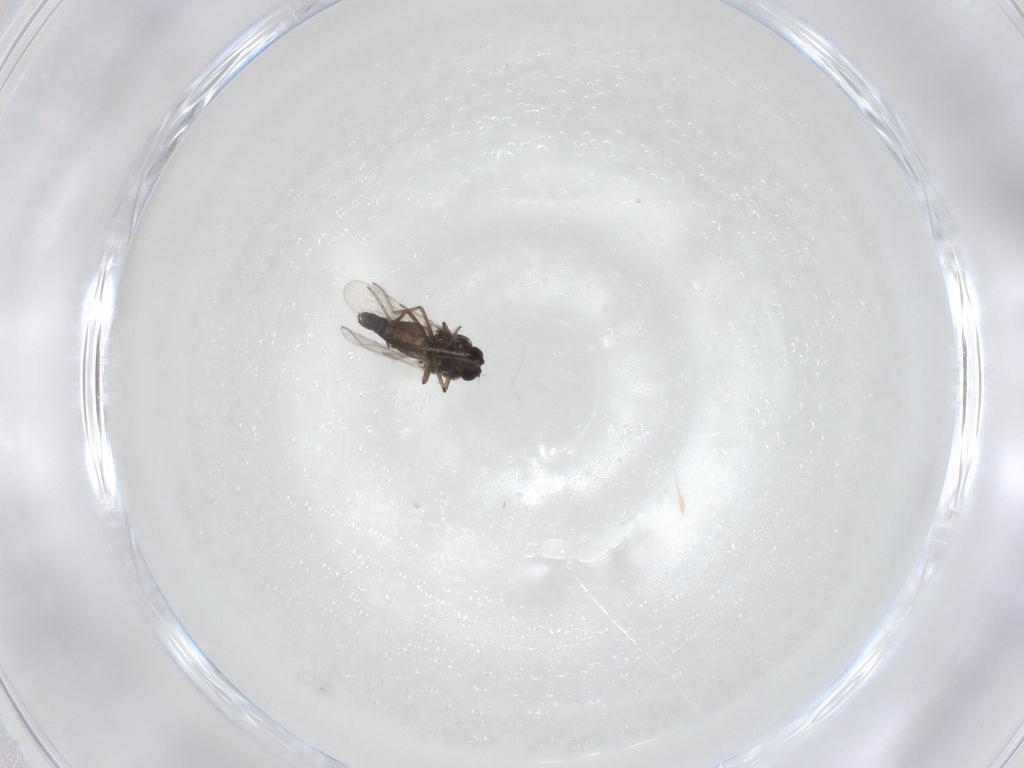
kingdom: Animalia
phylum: Arthropoda
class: Insecta
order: Diptera
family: Ceratopogonidae
